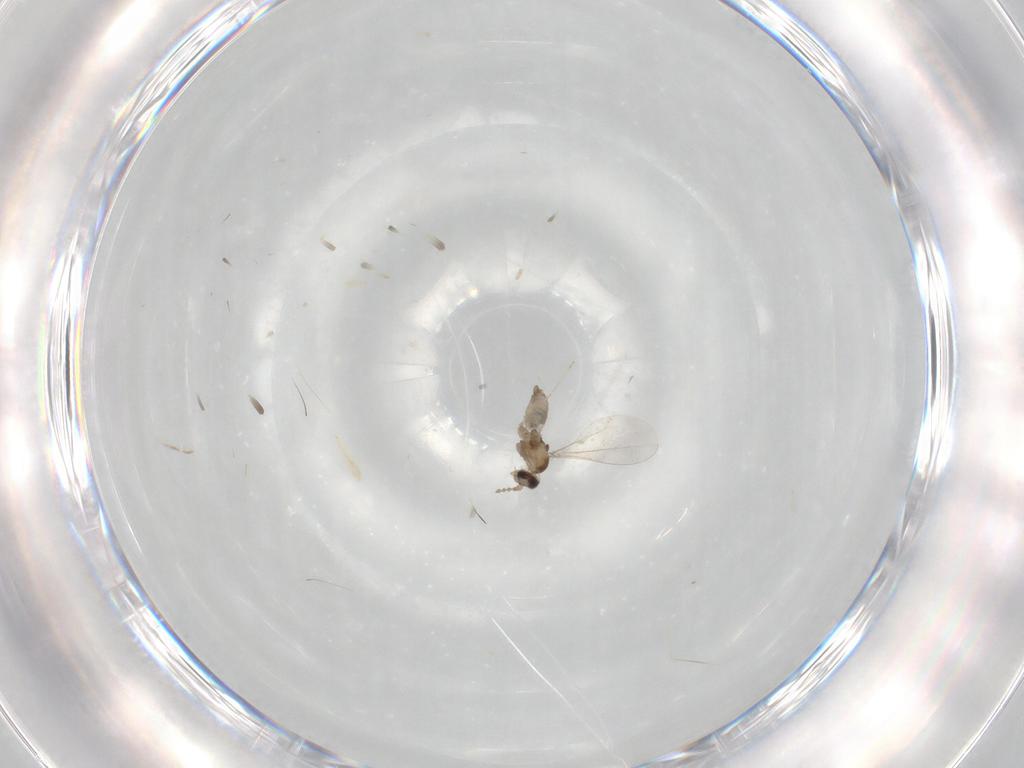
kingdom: Animalia
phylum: Arthropoda
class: Insecta
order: Diptera
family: Cecidomyiidae
